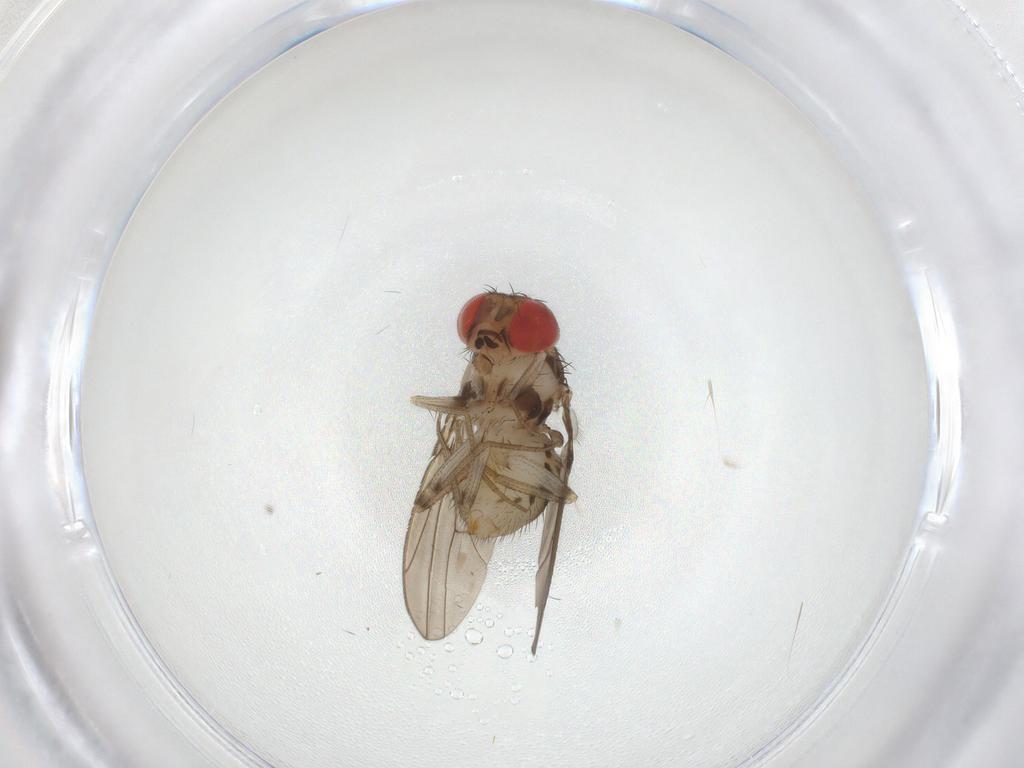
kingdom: Animalia
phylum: Arthropoda
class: Insecta
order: Diptera
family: Drosophilidae
